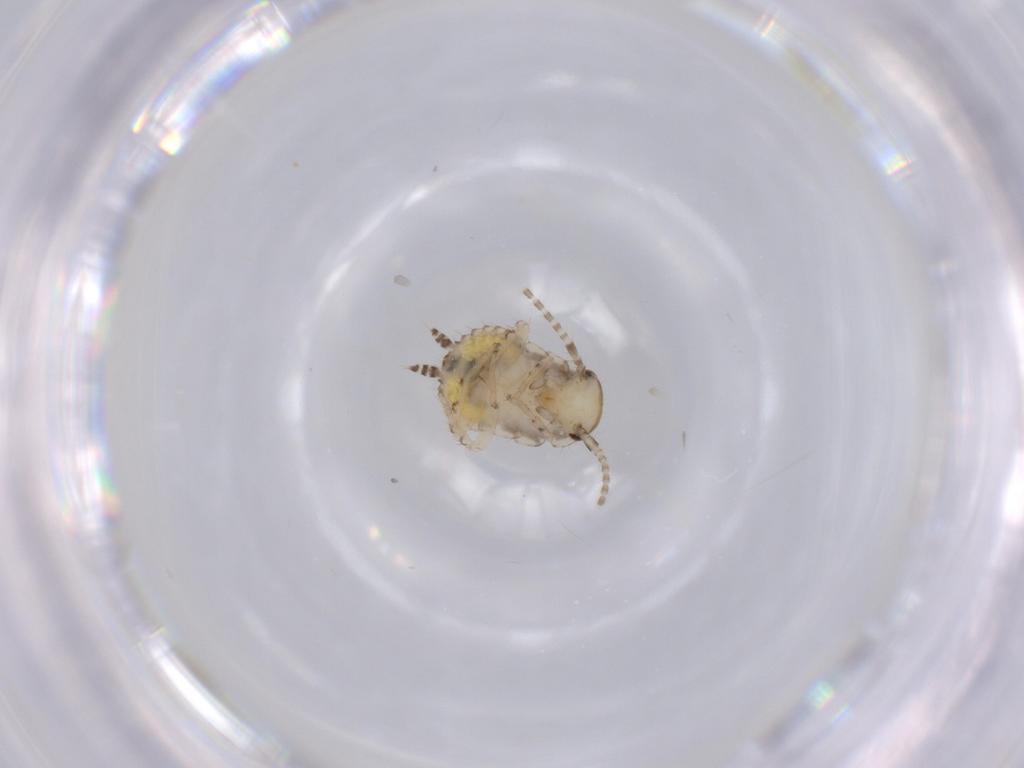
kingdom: Animalia
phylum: Arthropoda
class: Insecta
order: Blattodea
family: Ectobiidae
